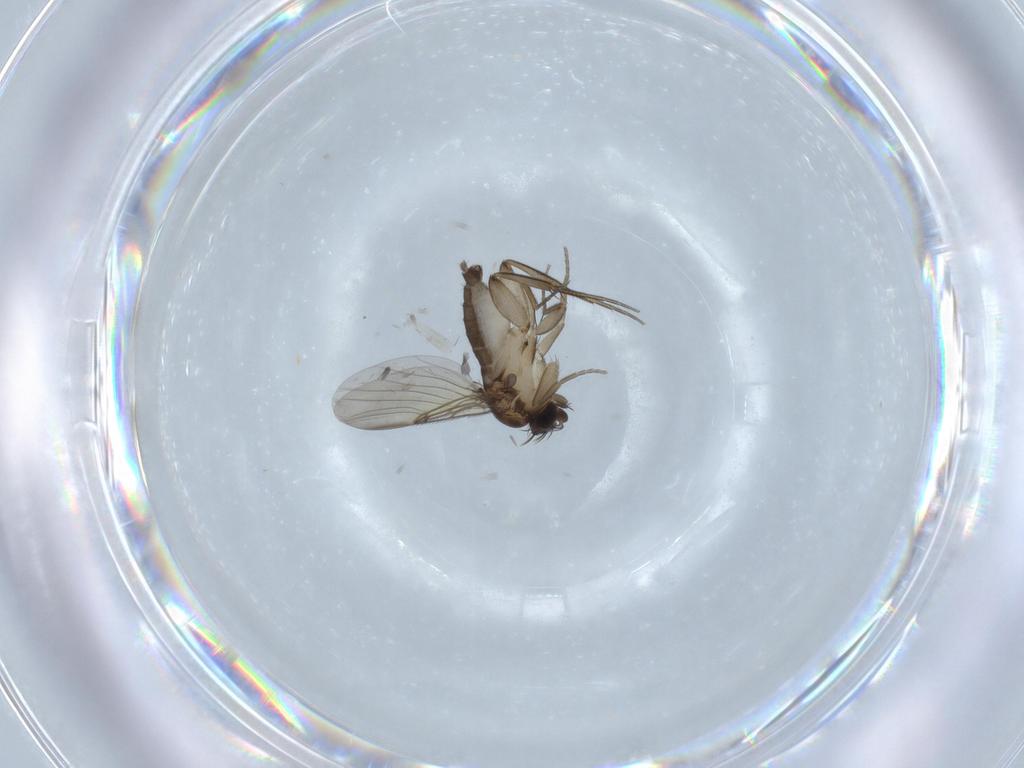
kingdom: Animalia
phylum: Arthropoda
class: Insecta
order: Diptera
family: Phoridae
